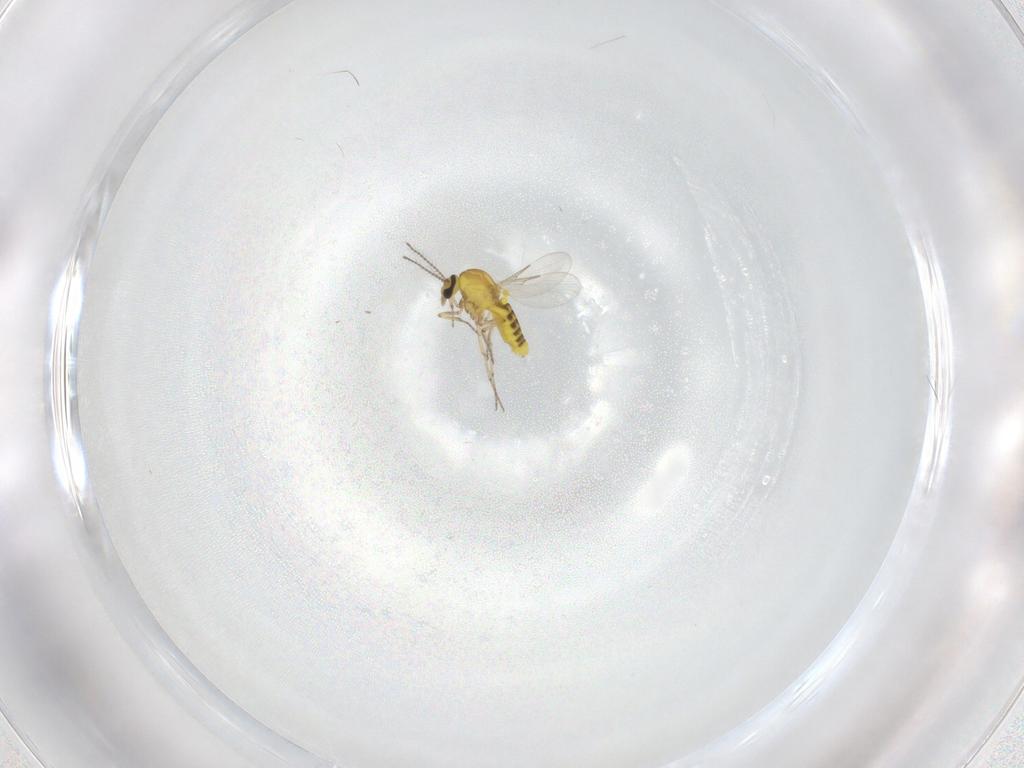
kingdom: Animalia
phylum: Arthropoda
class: Insecta
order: Diptera
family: Ceratopogonidae
